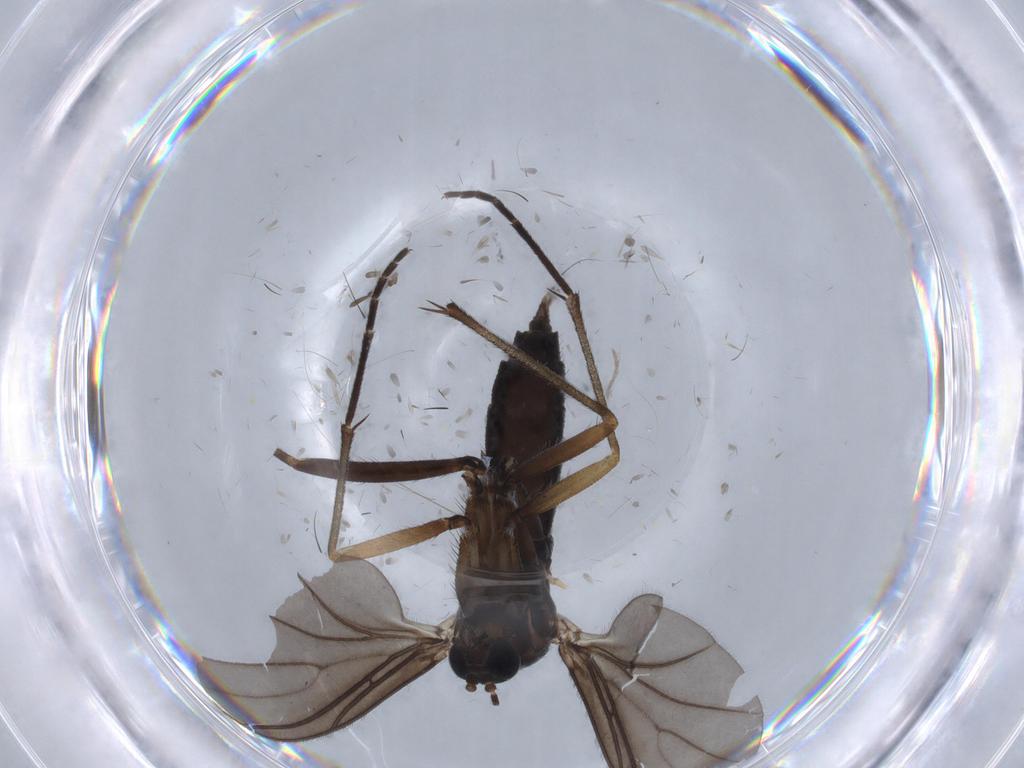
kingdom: Animalia
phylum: Arthropoda
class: Insecta
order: Diptera
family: Sciaridae
